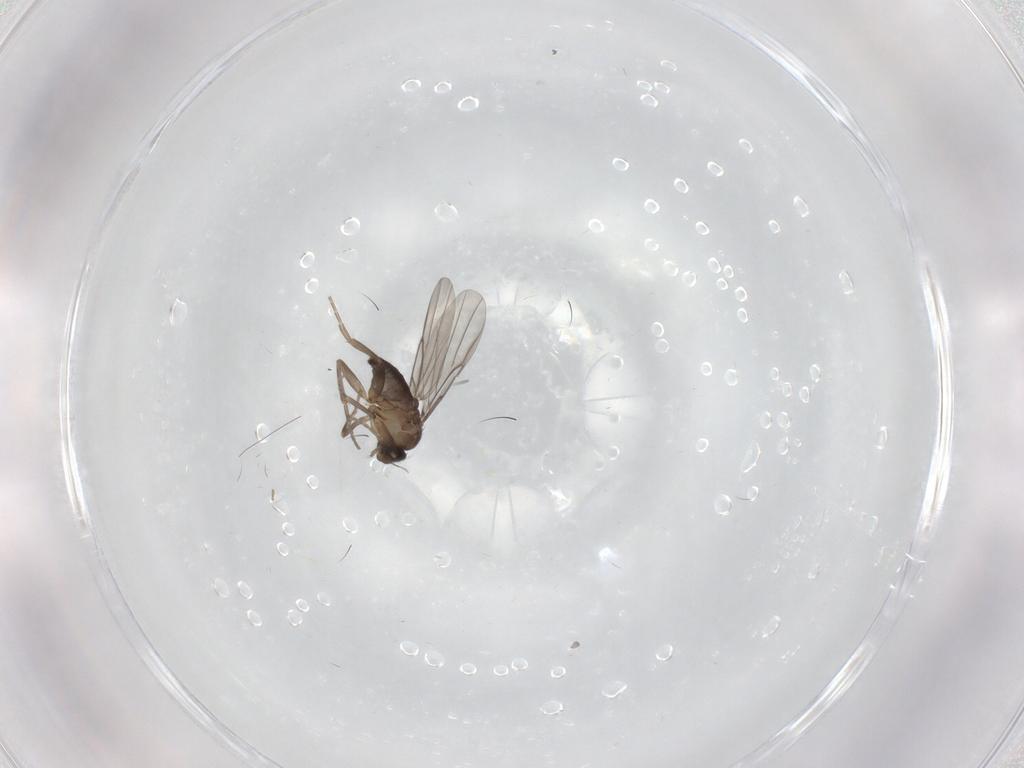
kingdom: Animalia
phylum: Arthropoda
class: Insecta
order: Diptera
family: Phoridae
